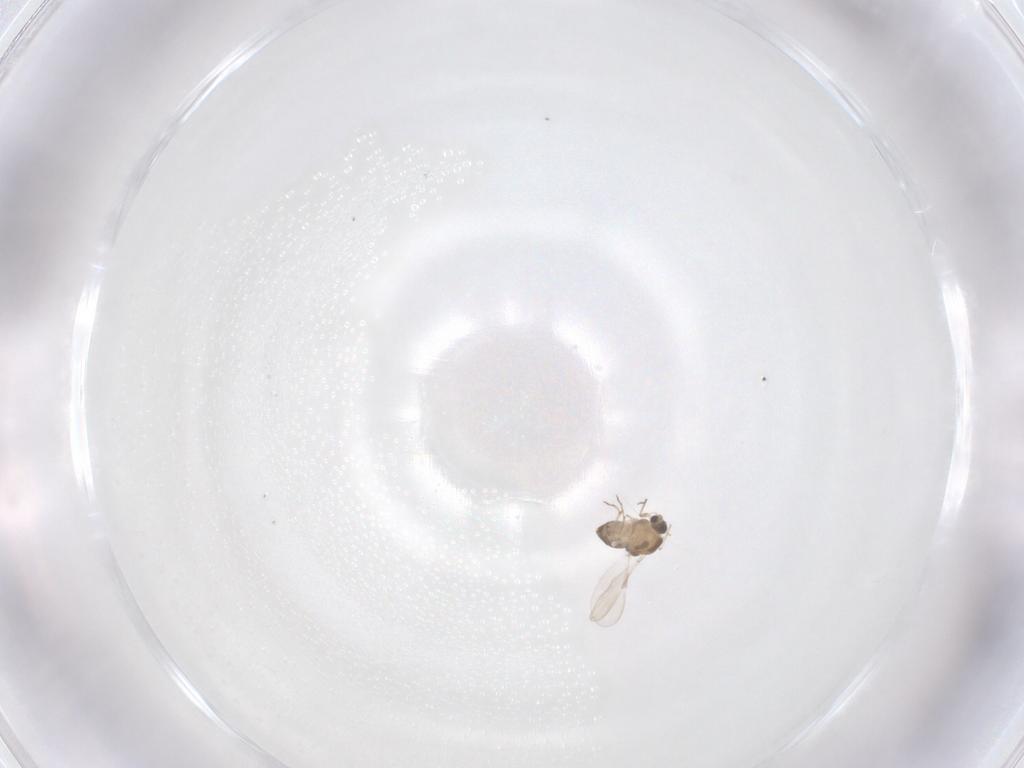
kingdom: Animalia
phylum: Arthropoda
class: Insecta
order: Diptera
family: Chironomidae
